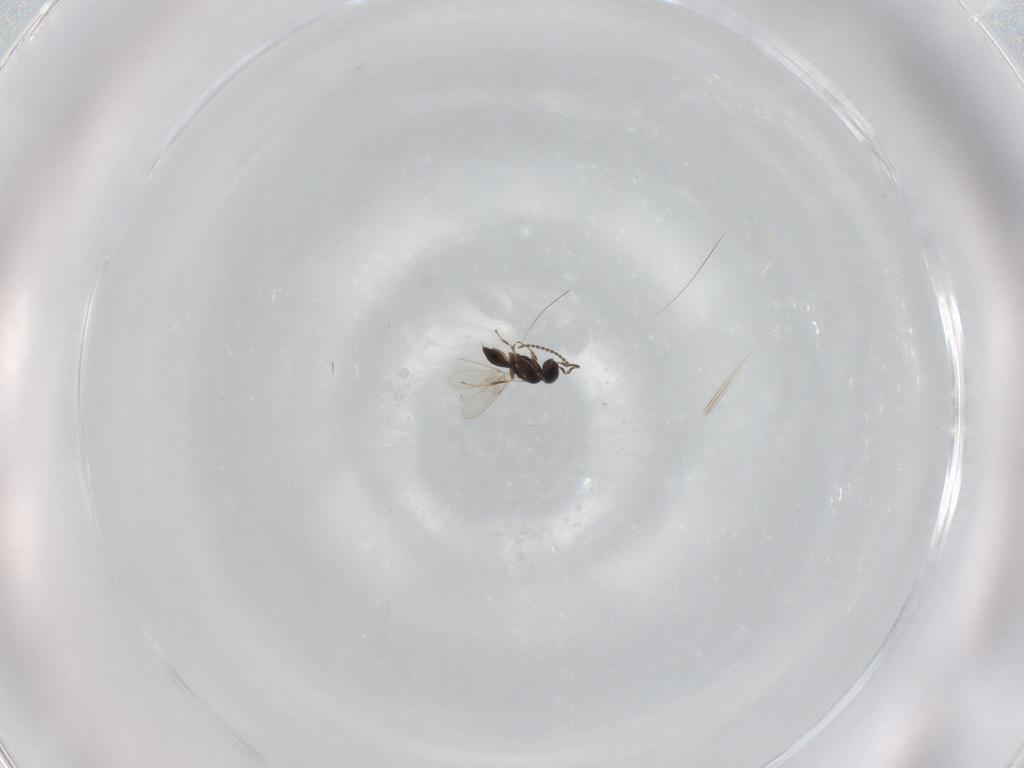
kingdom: Animalia
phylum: Arthropoda
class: Insecta
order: Hymenoptera
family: Scelionidae
